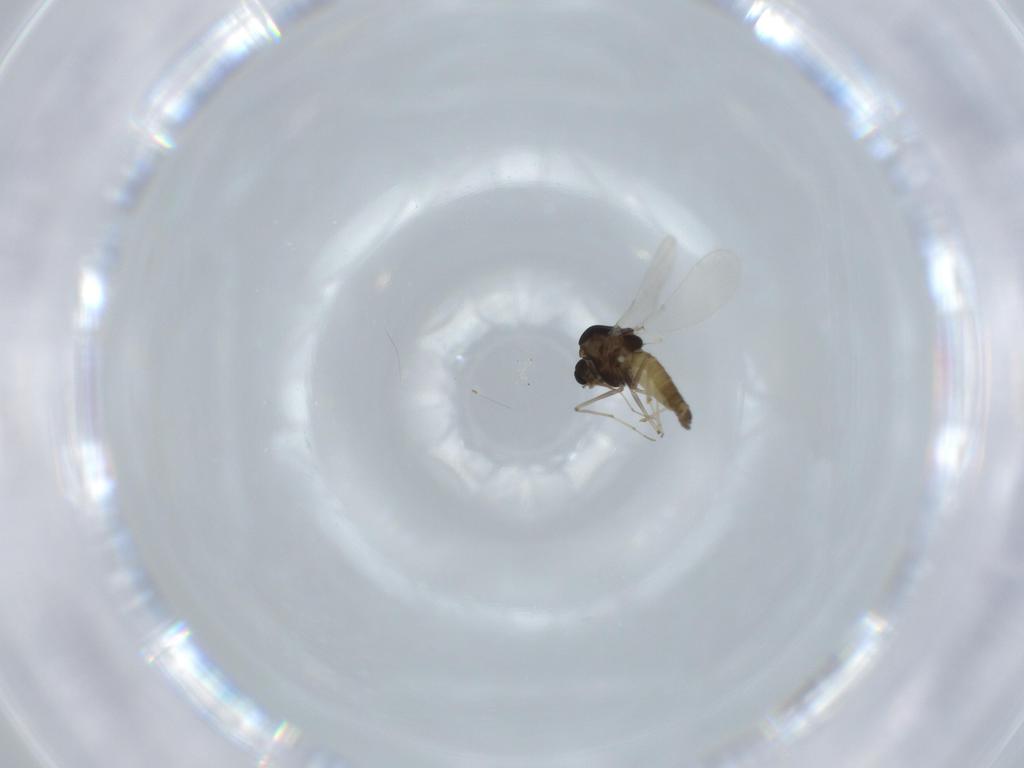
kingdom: Animalia
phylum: Arthropoda
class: Insecta
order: Diptera
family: Chironomidae
